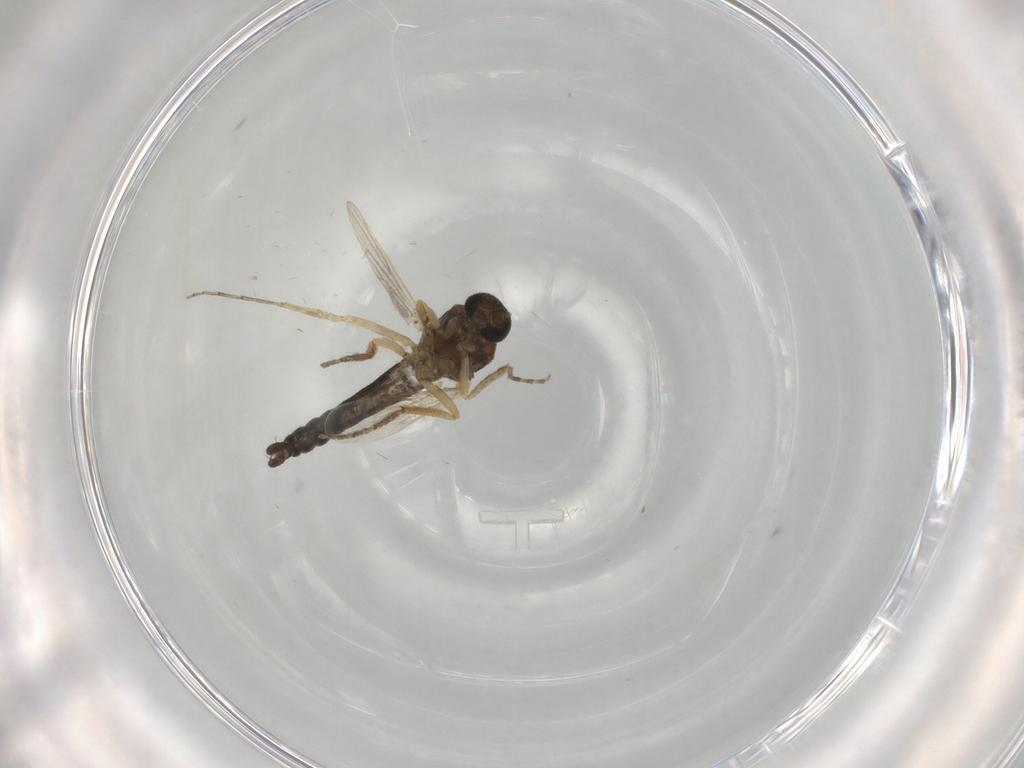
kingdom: Animalia
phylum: Arthropoda
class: Insecta
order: Diptera
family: Ceratopogonidae
